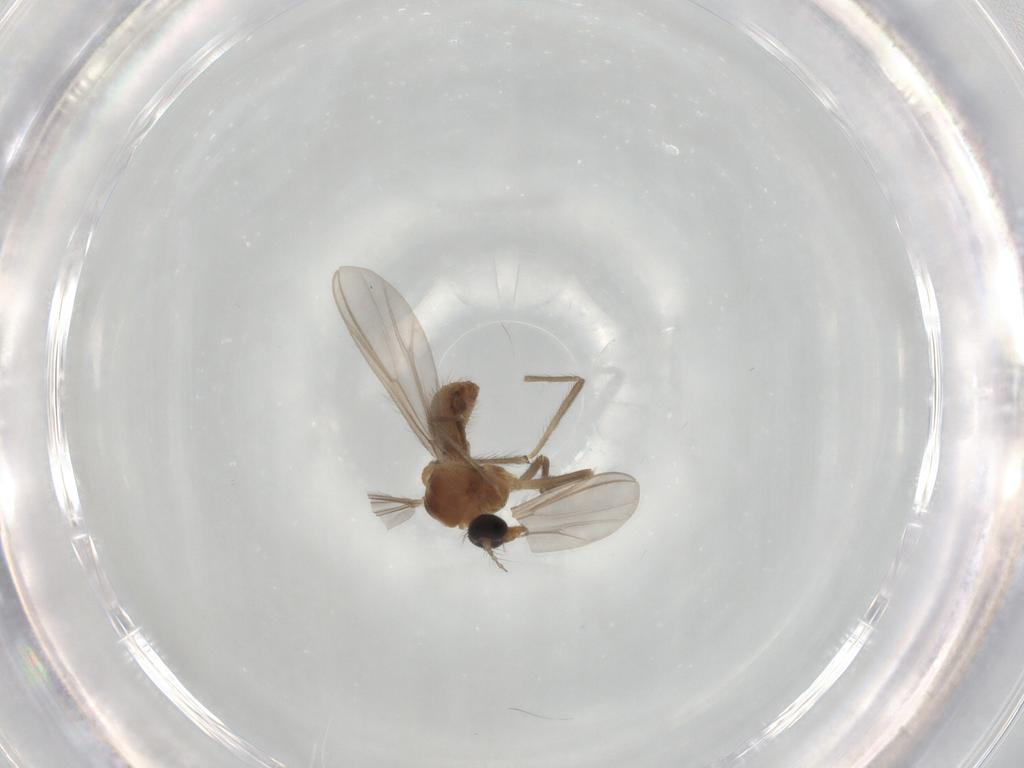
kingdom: Animalia
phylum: Arthropoda
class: Insecta
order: Diptera
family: Chironomidae
